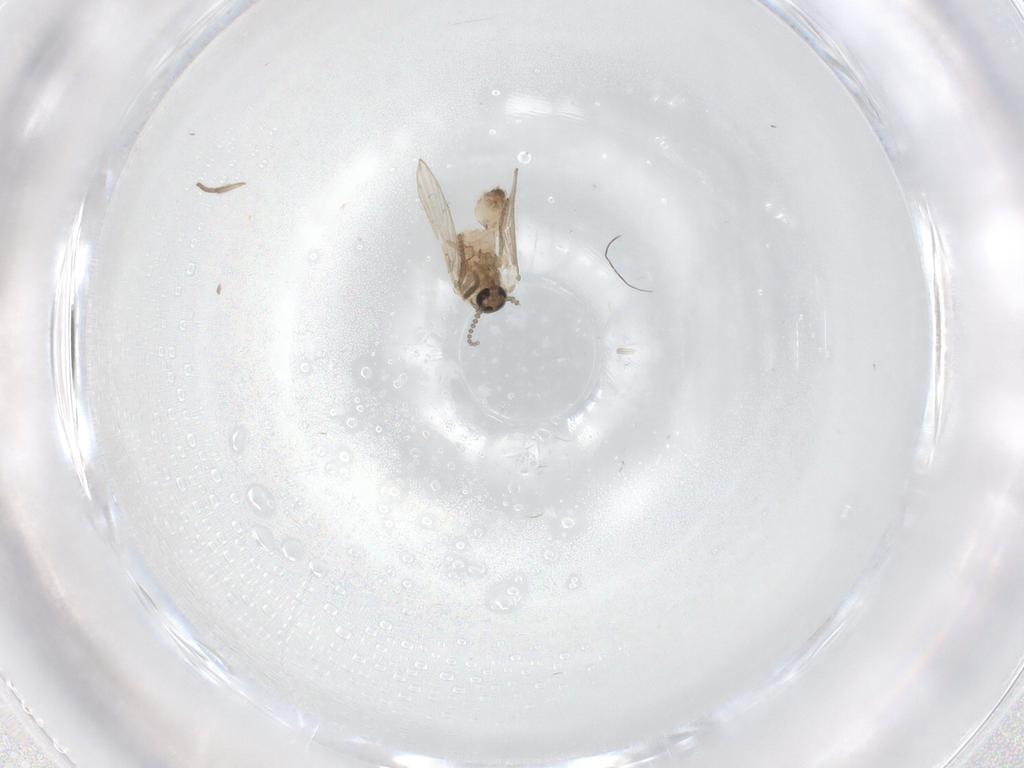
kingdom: Animalia
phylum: Arthropoda
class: Insecta
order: Diptera
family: Psychodidae
